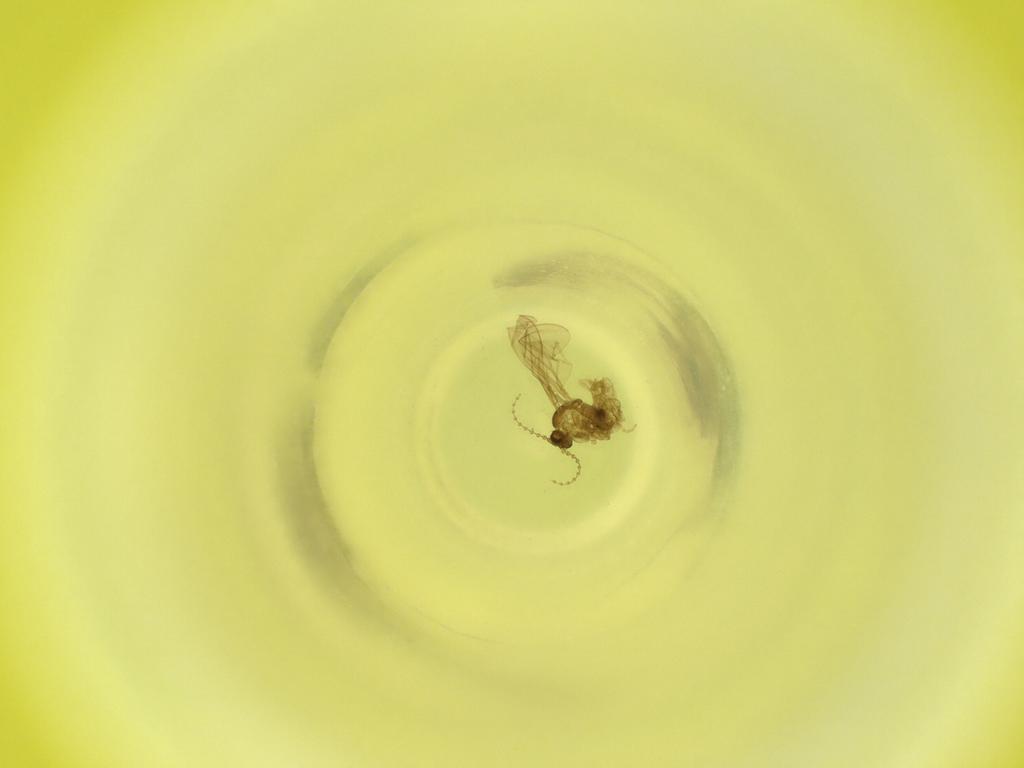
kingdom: Animalia
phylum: Arthropoda
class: Insecta
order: Diptera
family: Cecidomyiidae
